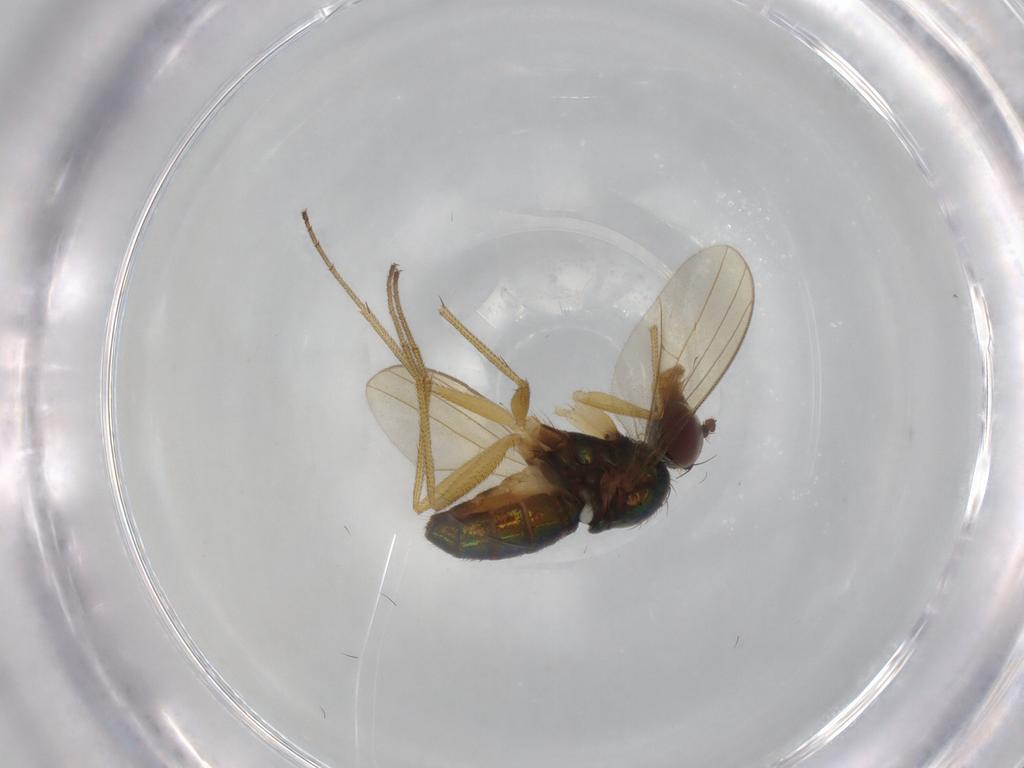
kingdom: Animalia
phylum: Arthropoda
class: Insecta
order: Diptera
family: Dolichopodidae
